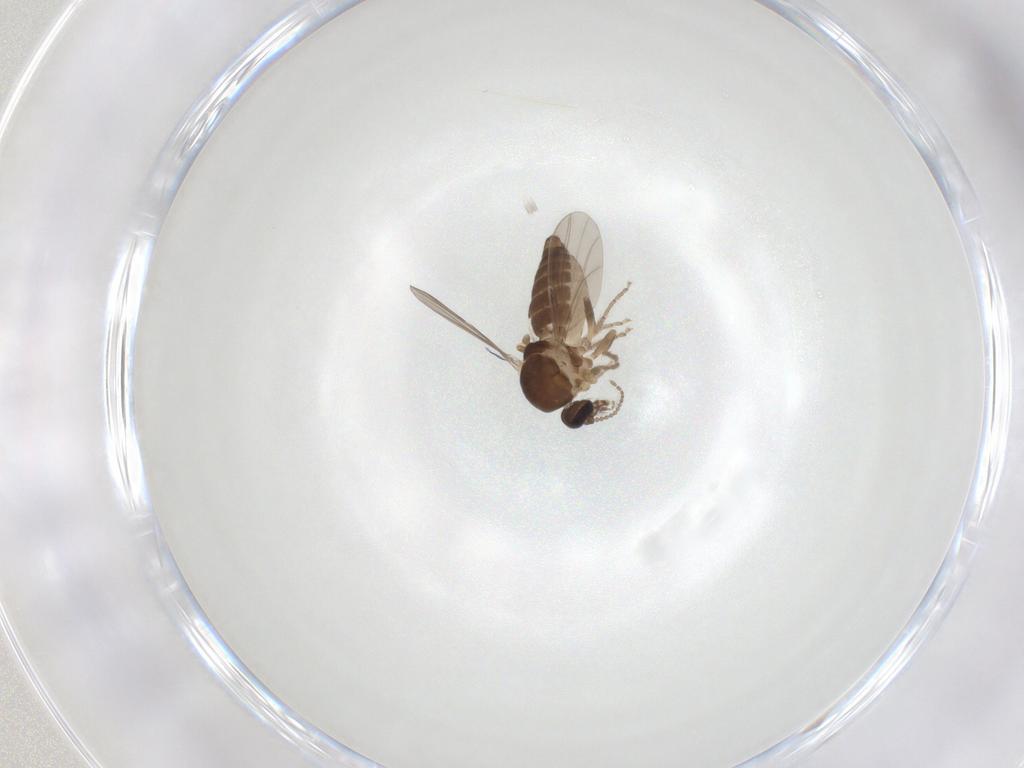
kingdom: Animalia
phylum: Arthropoda
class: Insecta
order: Diptera
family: Ceratopogonidae
